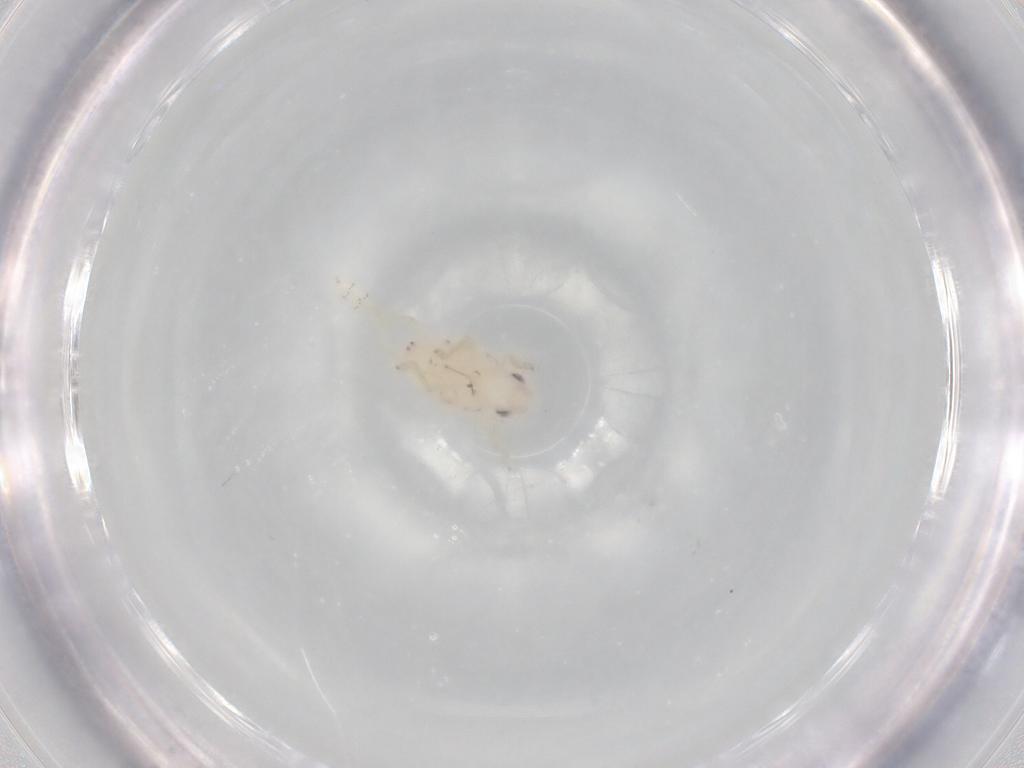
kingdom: Animalia
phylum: Arthropoda
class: Insecta
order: Hemiptera
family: Tropiduchidae
